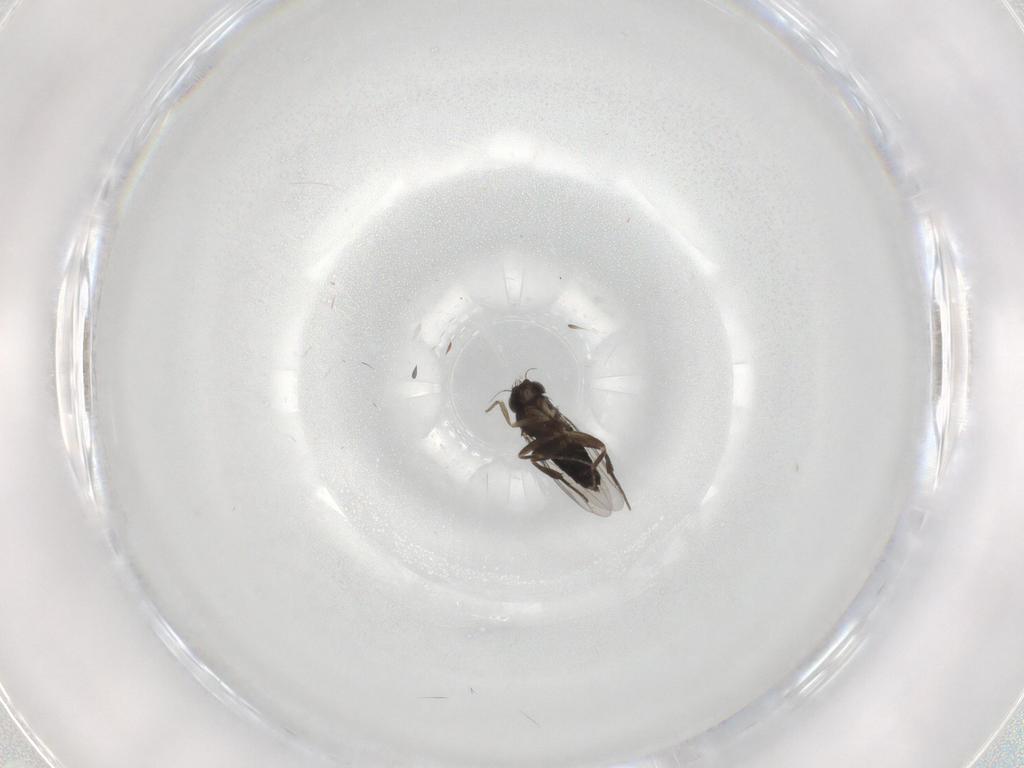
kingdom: Animalia
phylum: Arthropoda
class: Insecta
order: Diptera
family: Phoridae
